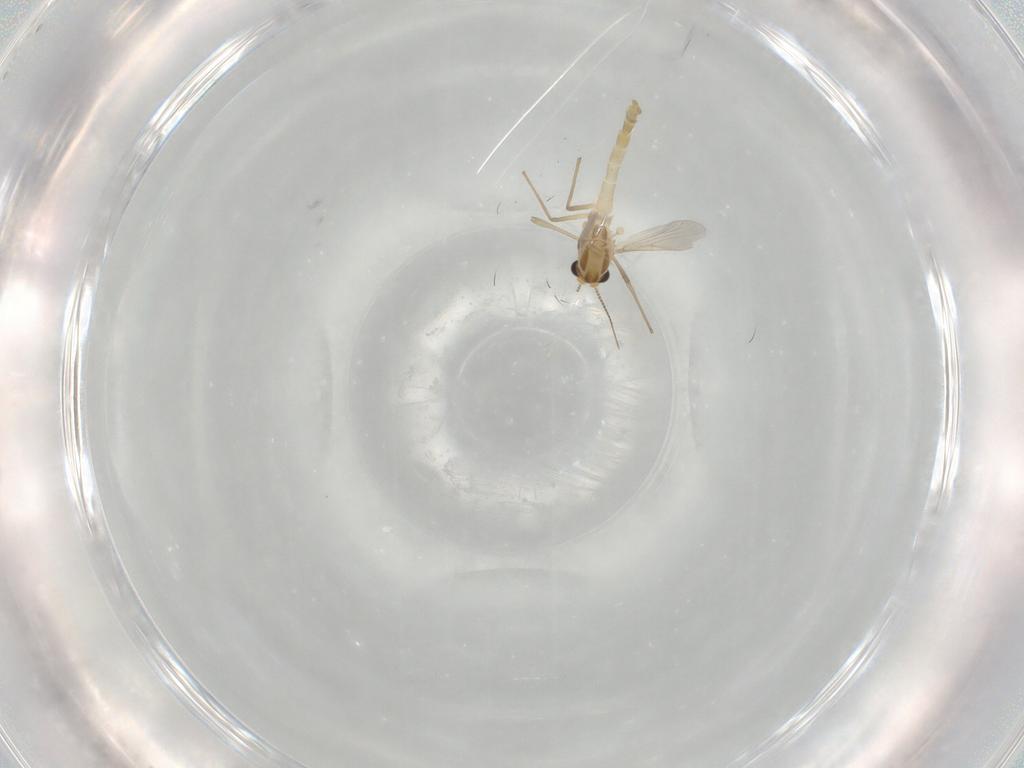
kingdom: Animalia
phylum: Arthropoda
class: Insecta
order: Diptera
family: Chironomidae
